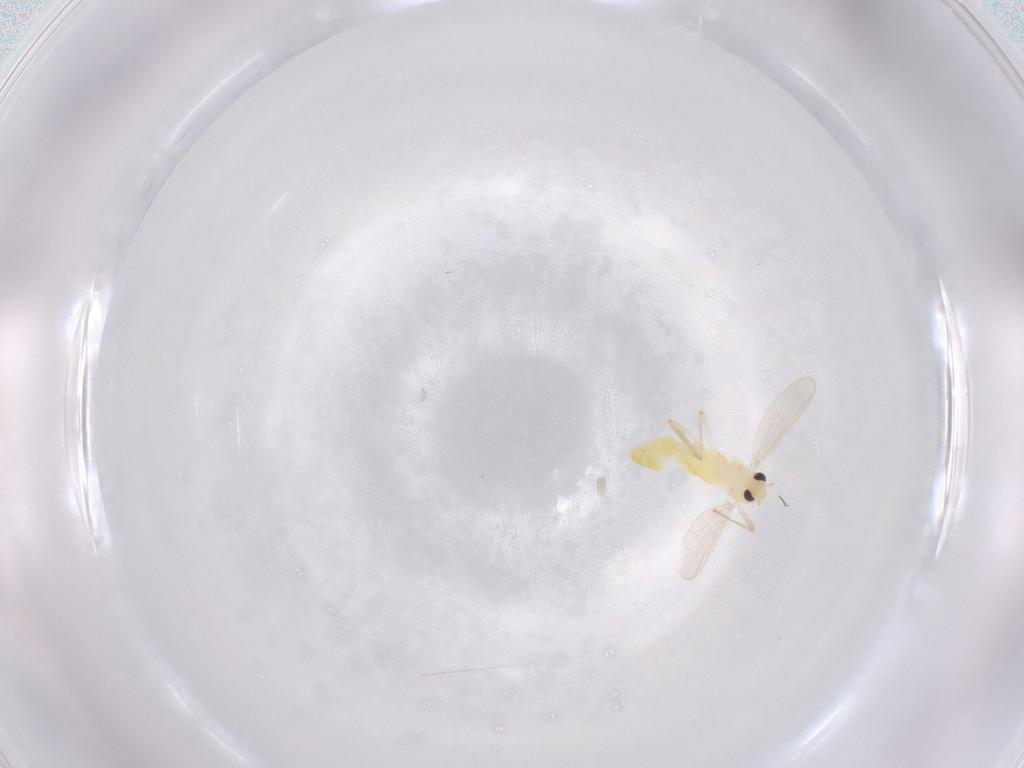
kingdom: Animalia
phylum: Arthropoda
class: Insecta
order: Diptera
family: Chironomidae
